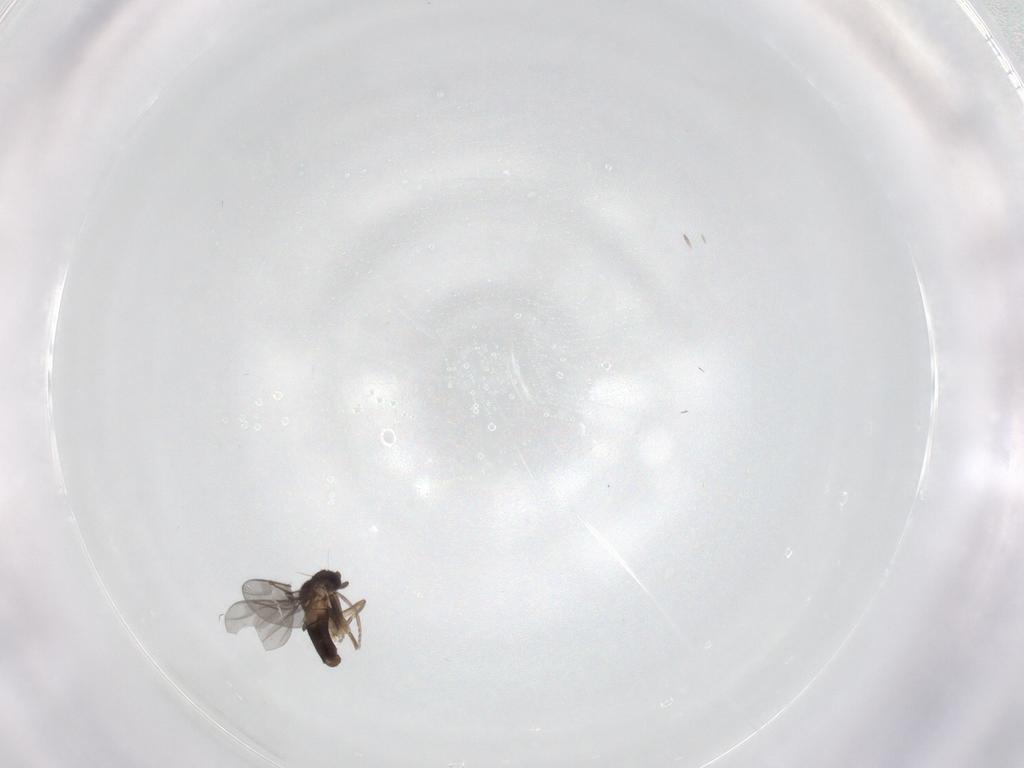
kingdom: Animalia
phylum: Arthropoda
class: Insecta
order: Diptera
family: Phoridae
